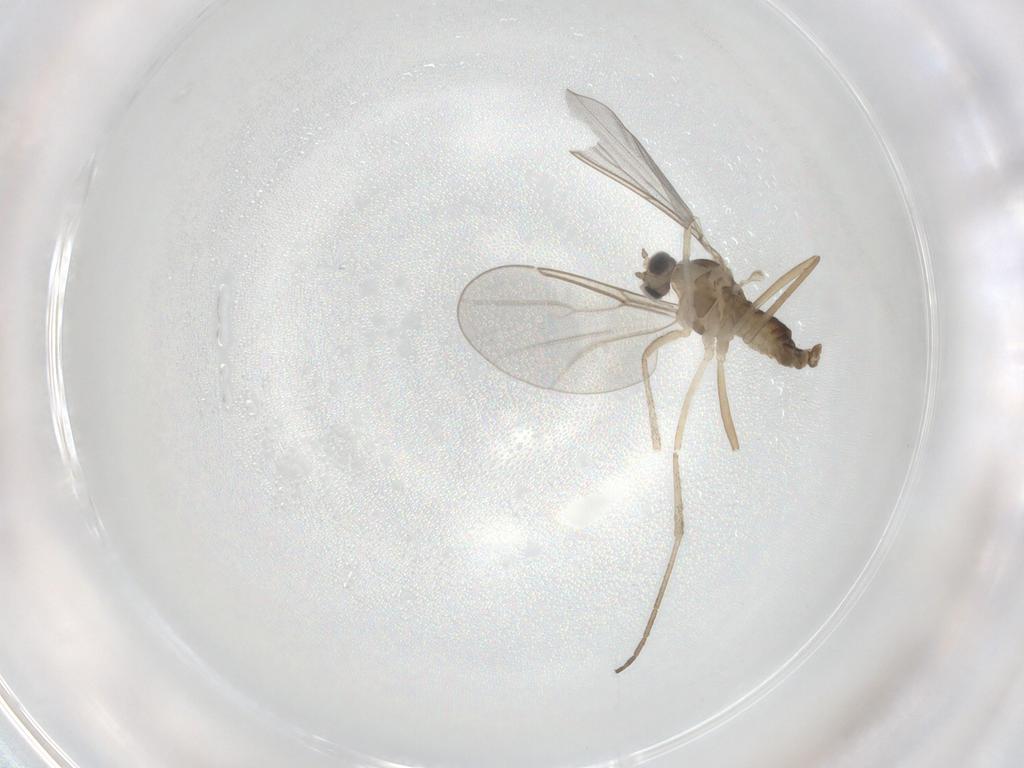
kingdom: Animalia
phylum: Arthropoda
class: Insecta
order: Diptera
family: Cecidomyiidae
